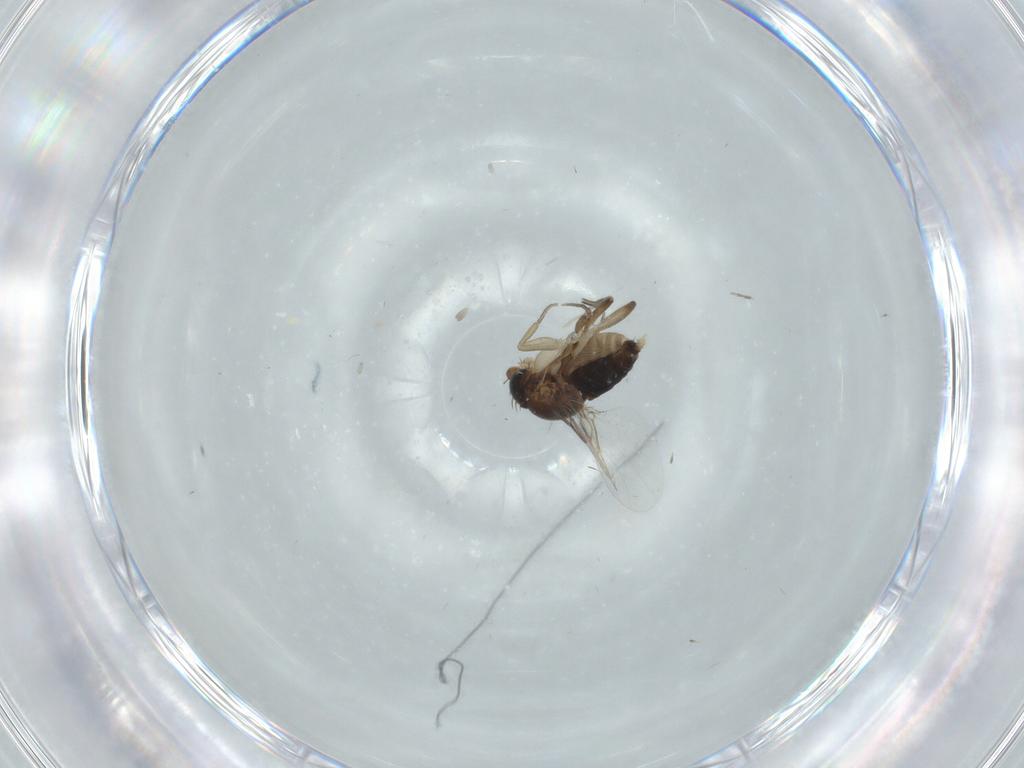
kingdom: Animalia
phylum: Arthropoda
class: Insecta
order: Diptera
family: Phoridae
